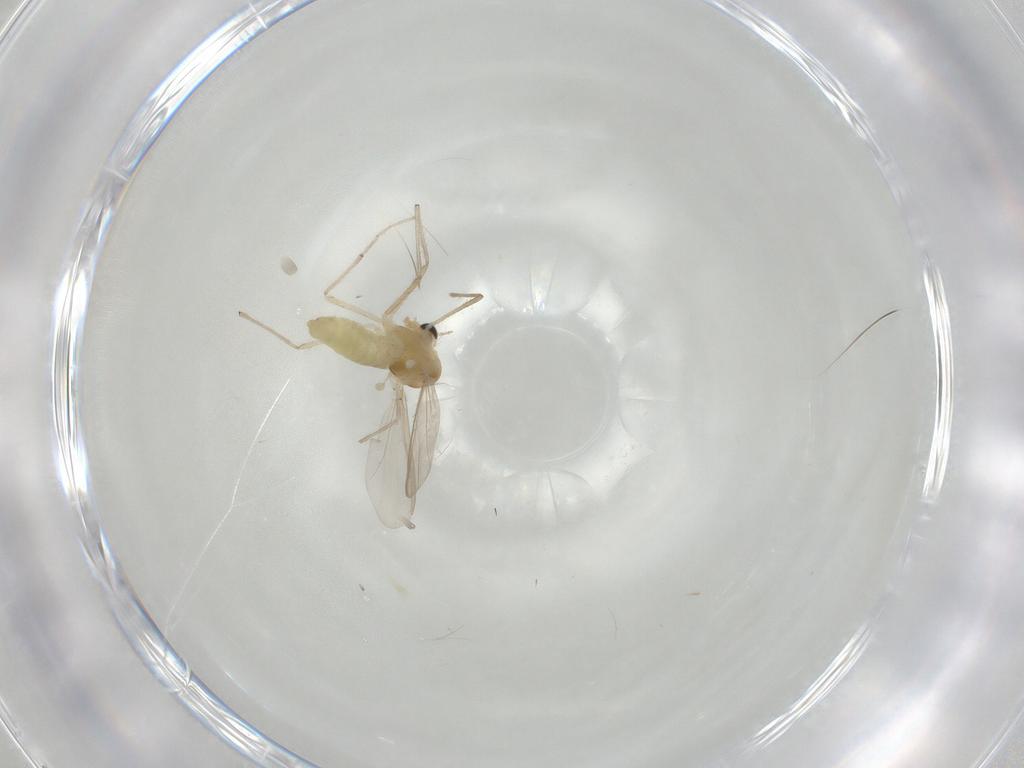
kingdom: Animalia
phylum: Arthropoda
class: Insecta
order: Diptera
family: Chironomidae
